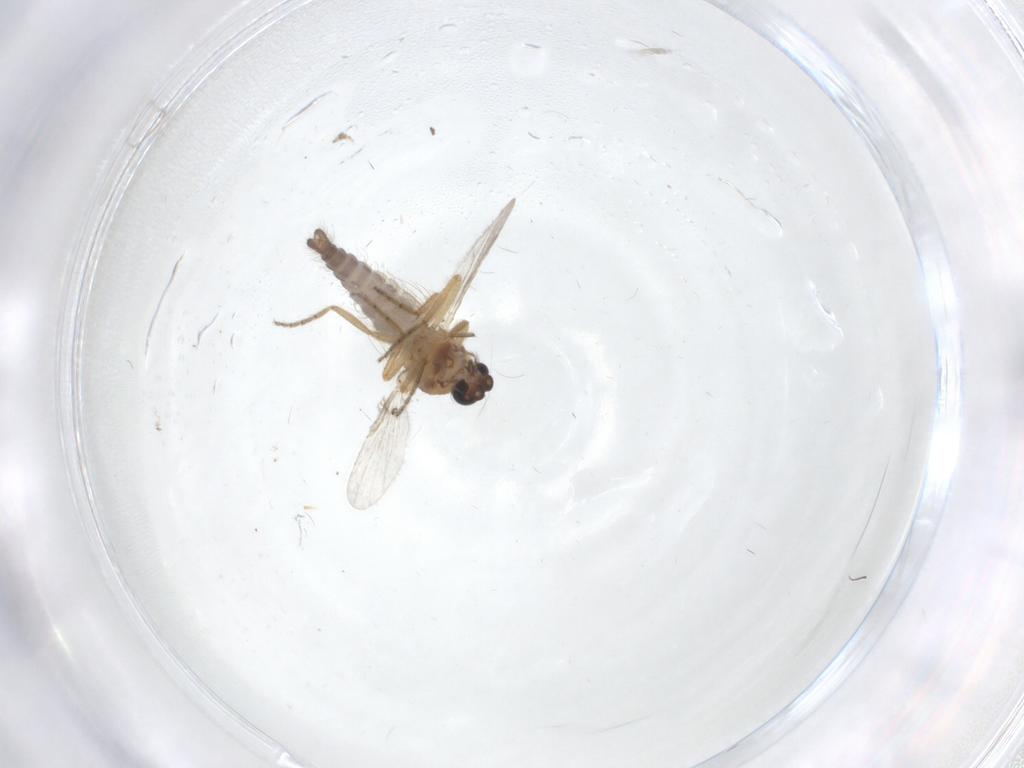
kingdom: Animalia
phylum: Arthropoda
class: Insecta
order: Diptera
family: Ceratopogonidae
